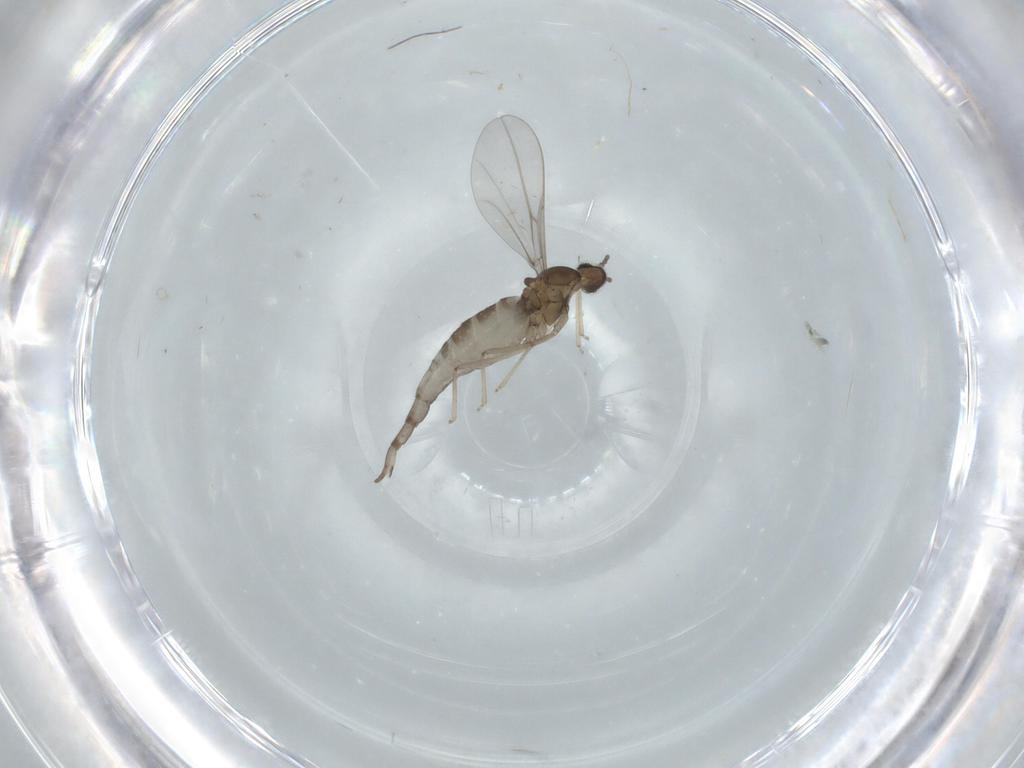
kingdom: Animalia
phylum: Arthropoda
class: Insecta
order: Diptera
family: Cecidomyiidae
